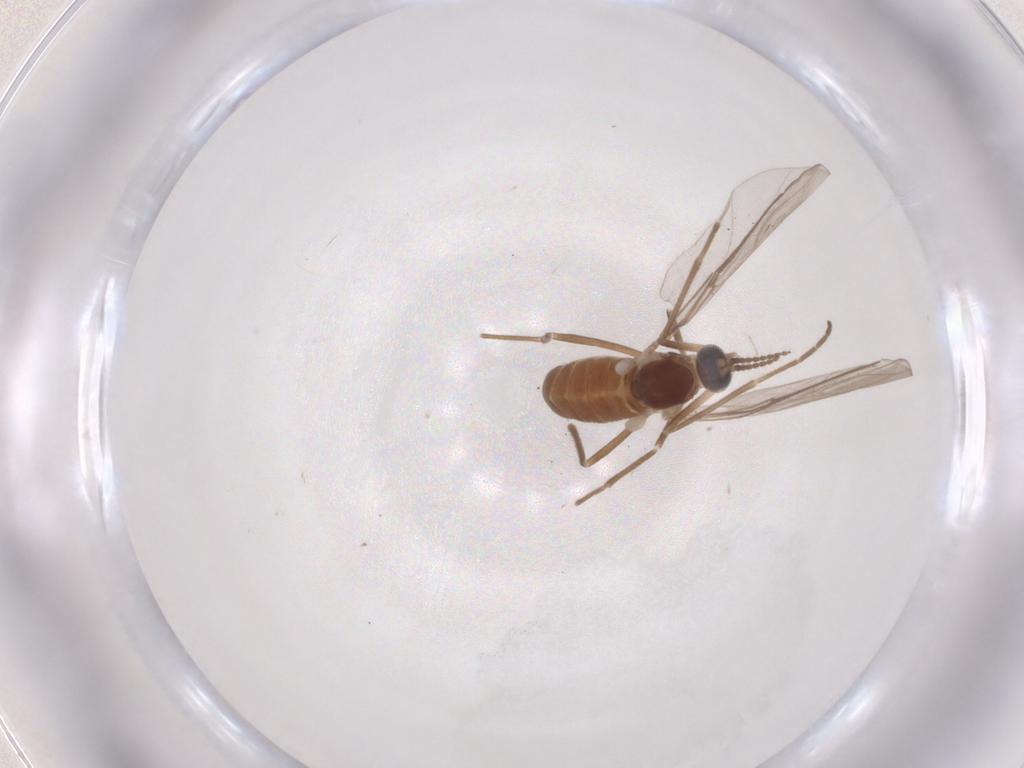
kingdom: Animalia
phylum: Arthropoda
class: Insecta
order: Diptera
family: Cecidomyiidae
